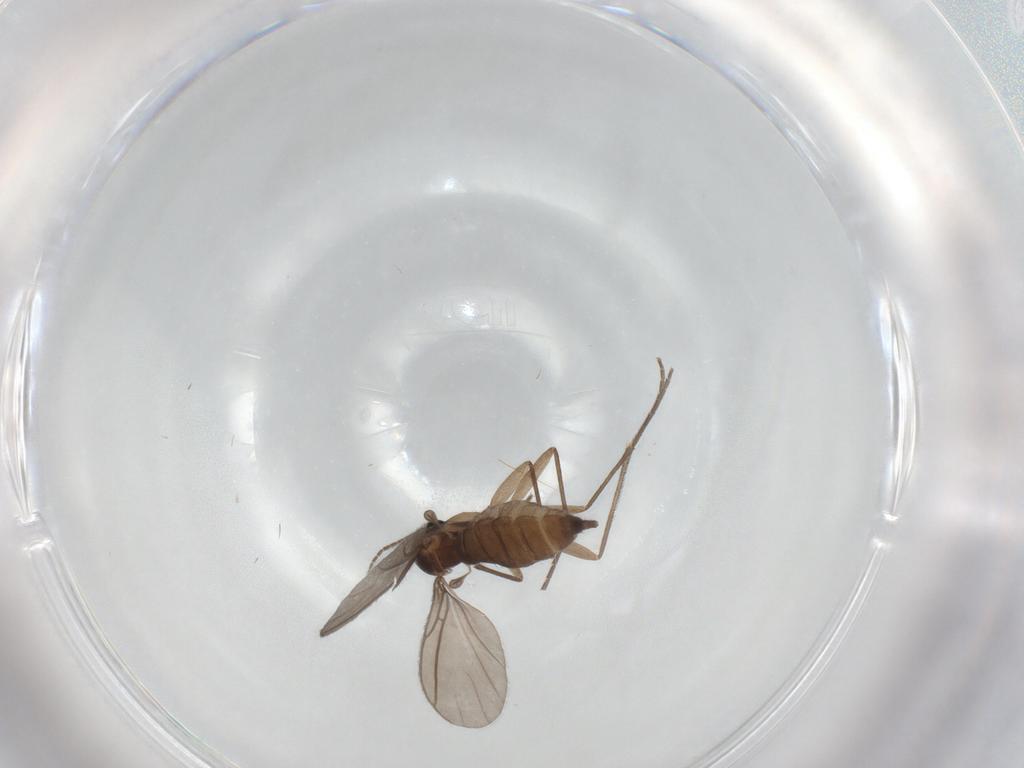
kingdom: Animalia
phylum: Arthropoda
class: Insecta
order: Diptera
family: Sciaridae
